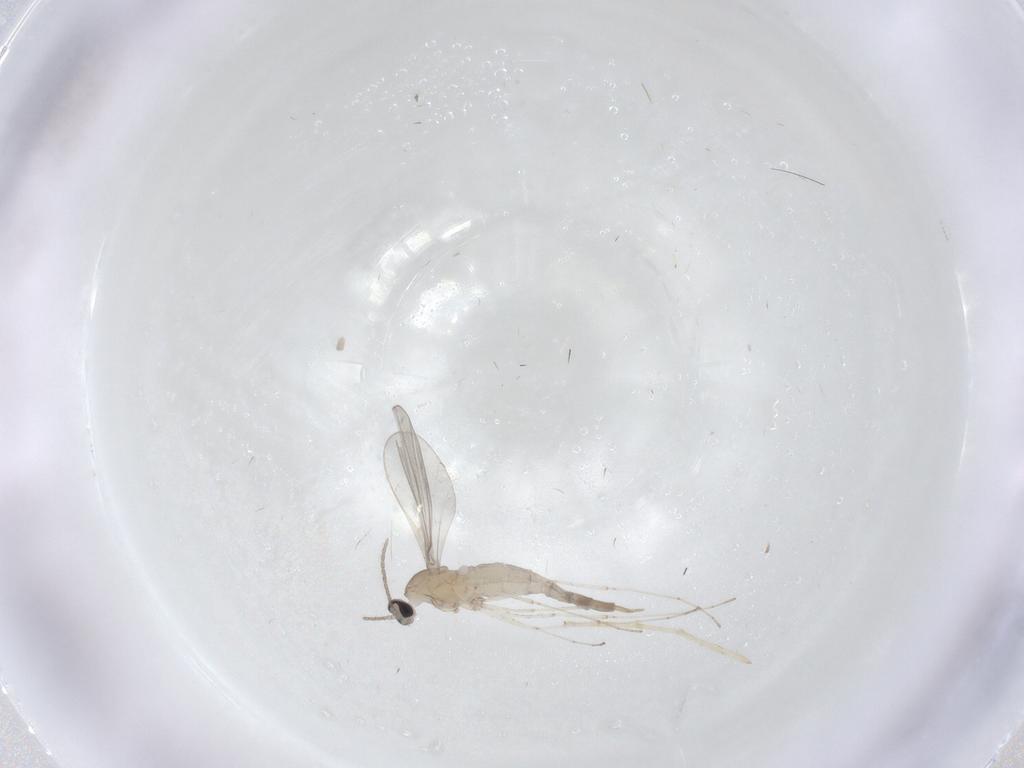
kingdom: Animalia
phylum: Arthropoda
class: Insecta
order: Diptera
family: Cecidomyiidae
